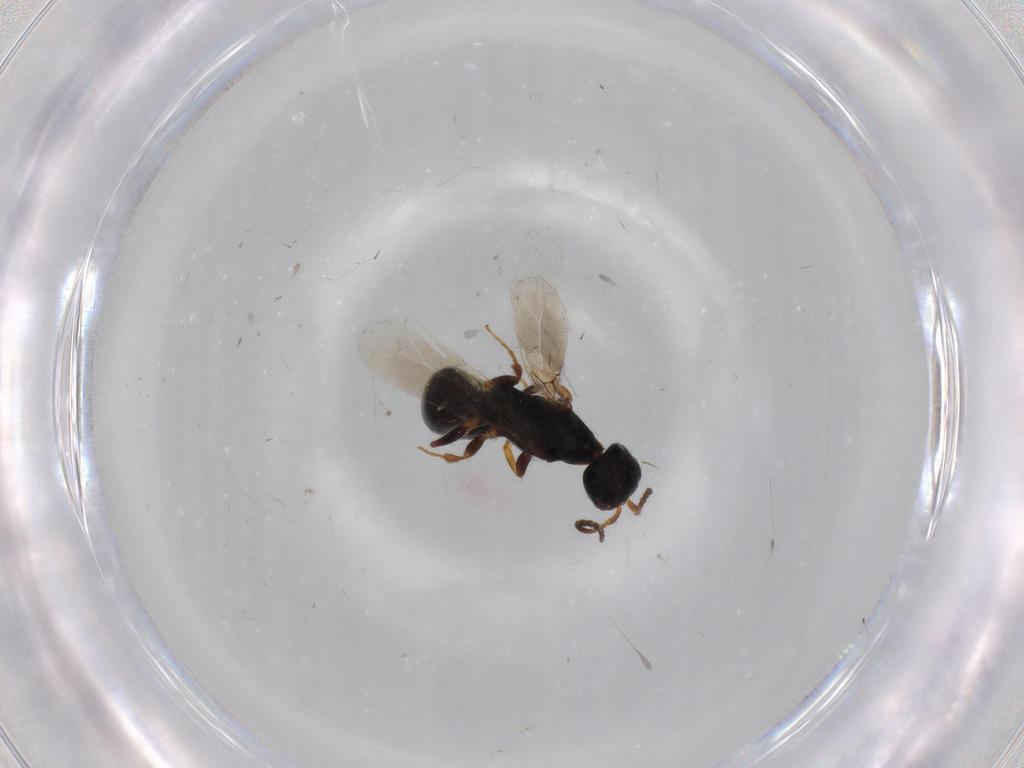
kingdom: Animalia
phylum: Arthropoda
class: Insecta
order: Hymenoptera
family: Bethylidae
